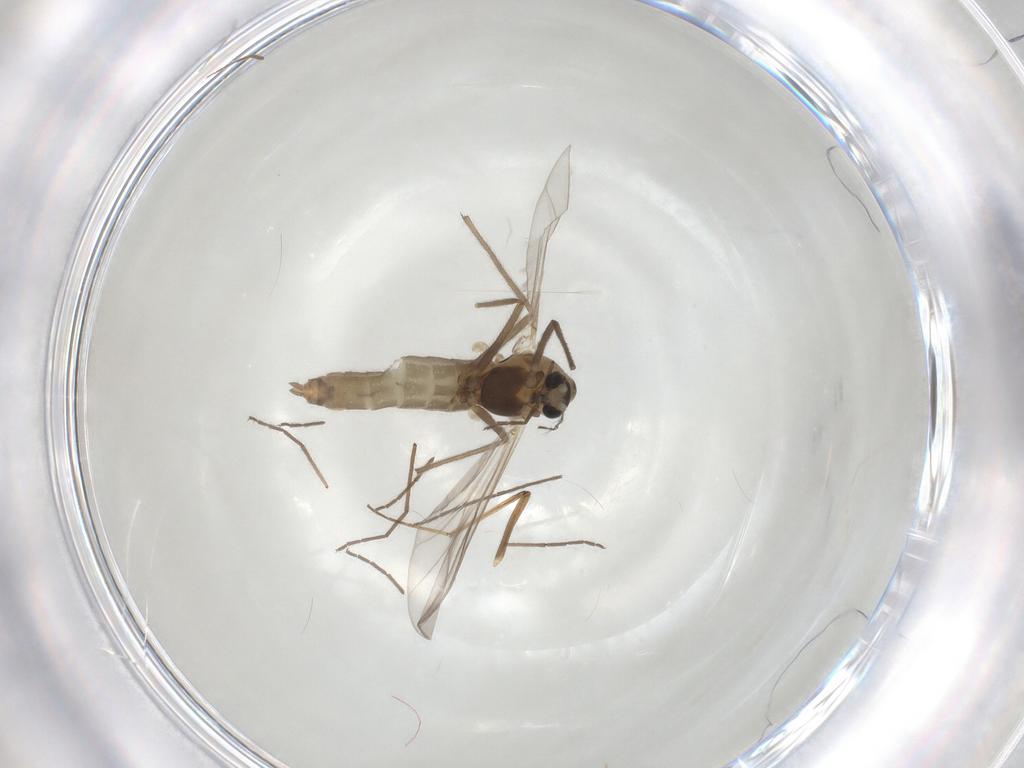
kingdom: Animalia
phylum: Arthropoda
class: Insecta
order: Diptera
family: Chironomidae
